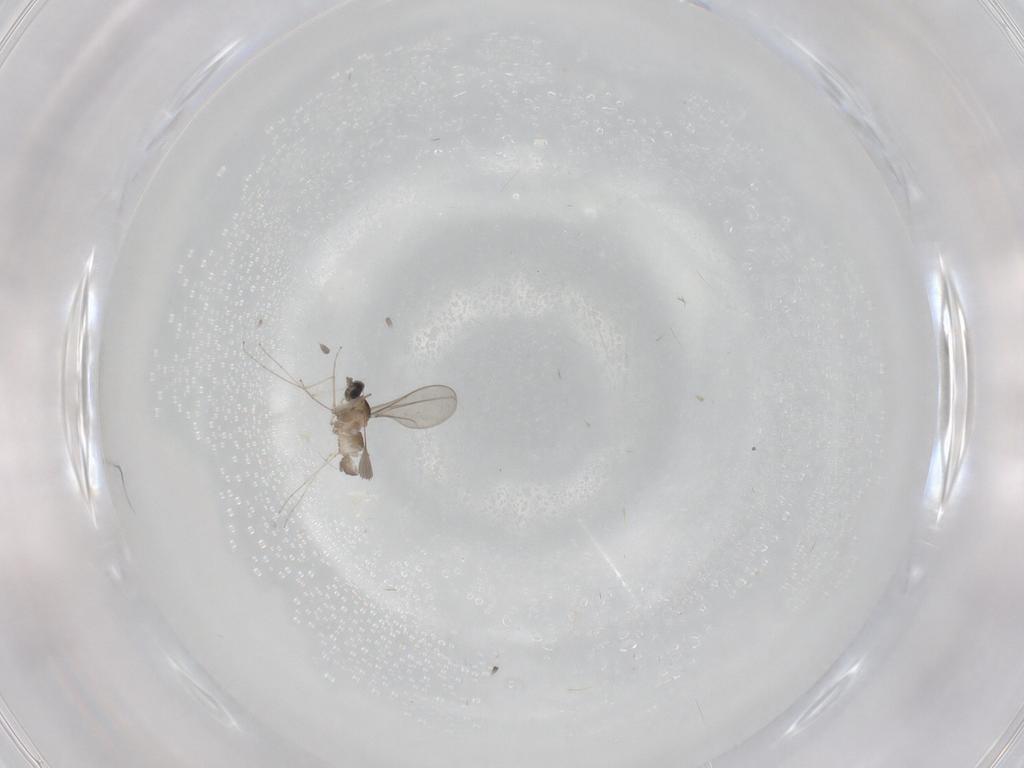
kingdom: Animalia
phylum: Arthropoda
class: Insecta
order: Diptera
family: Cecidomyiidae
